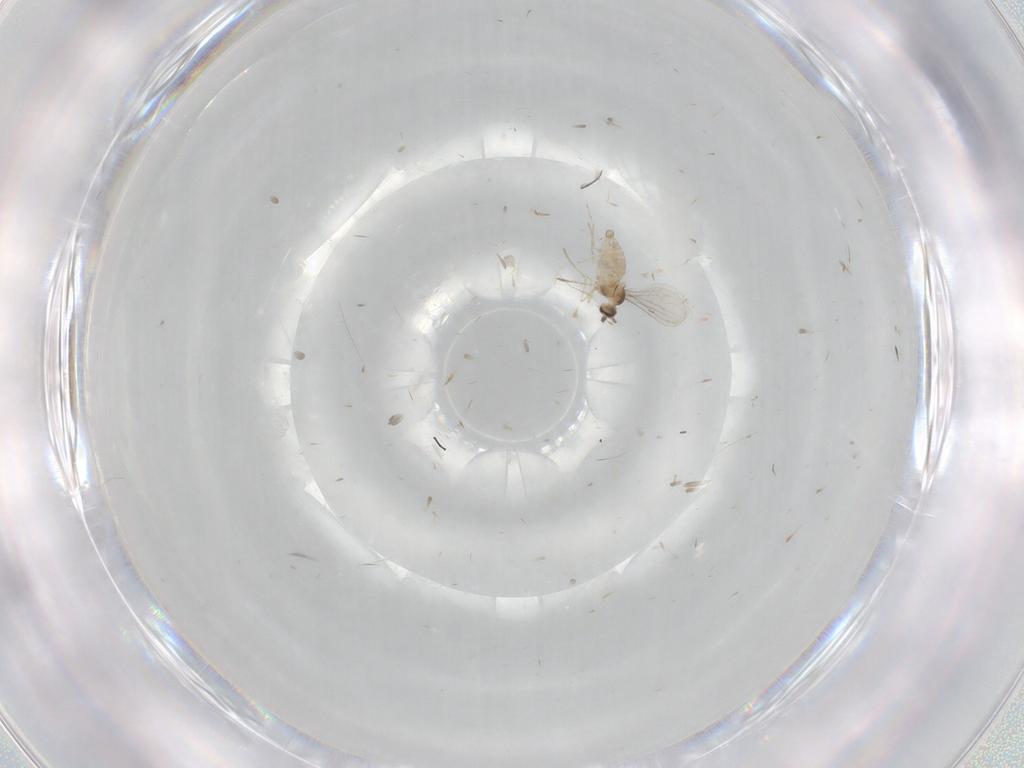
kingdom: Animalia
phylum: Arthropoda
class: Insecta
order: Diptera
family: Cecidomyiidae
